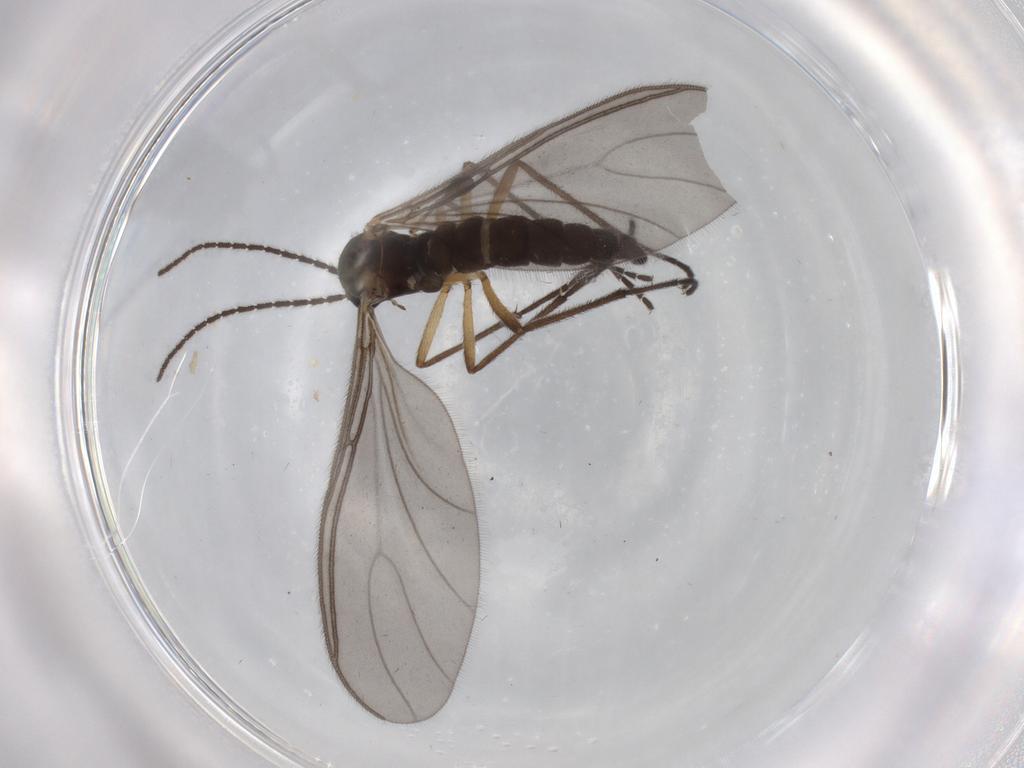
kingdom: Animalia
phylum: Arthropoda
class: Insecta
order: Diptera
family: Sciaridae
